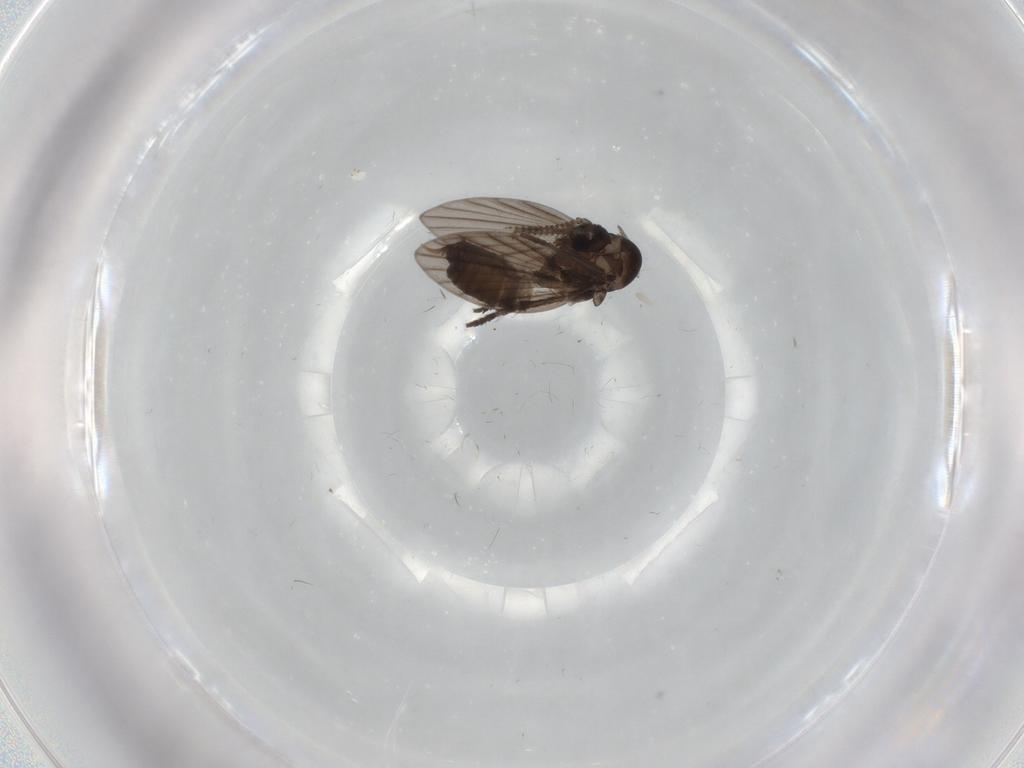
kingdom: Animalia
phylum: Arthropoda
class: Insecta
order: Diptera
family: Psychodidae
